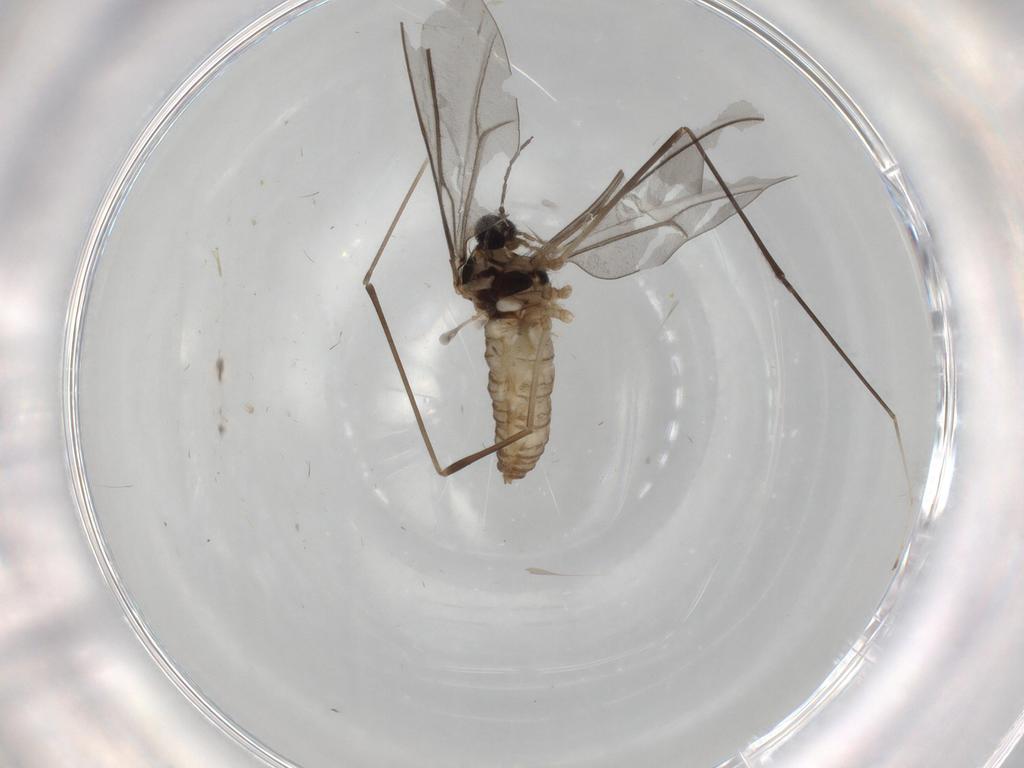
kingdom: Animalia
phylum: Arthropoda
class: Insecta
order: Diptera
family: Cecidomyiidae
